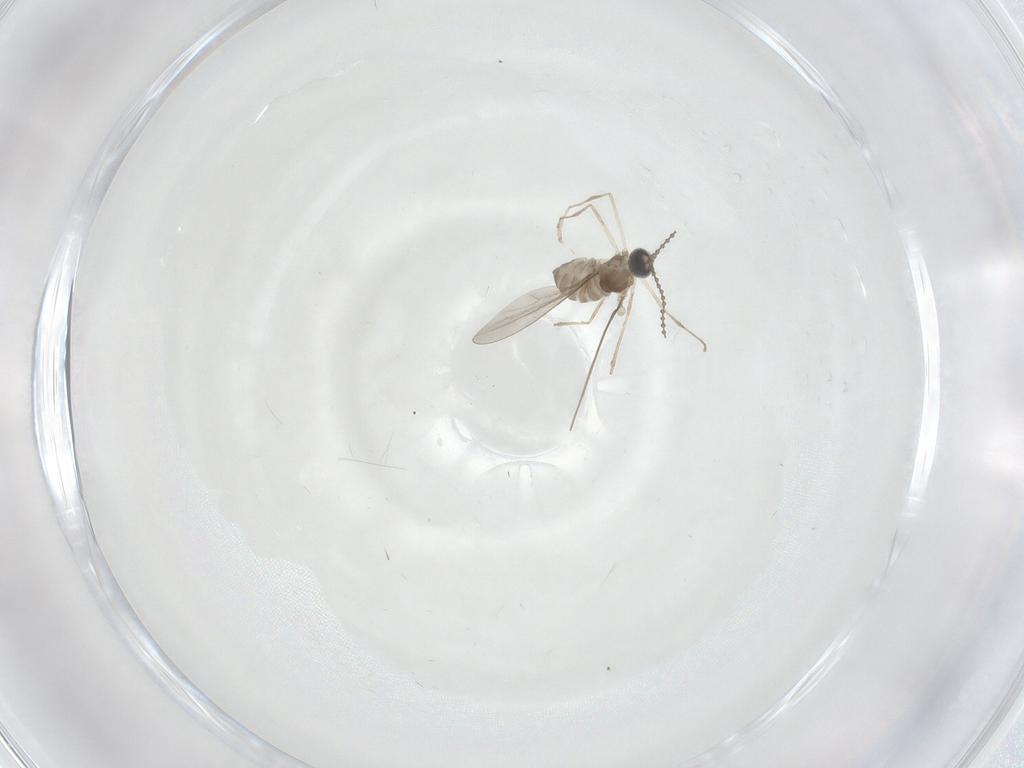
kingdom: Animalia
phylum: Arthropoda
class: Insecta
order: Diptera
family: Cecidomyiidae
